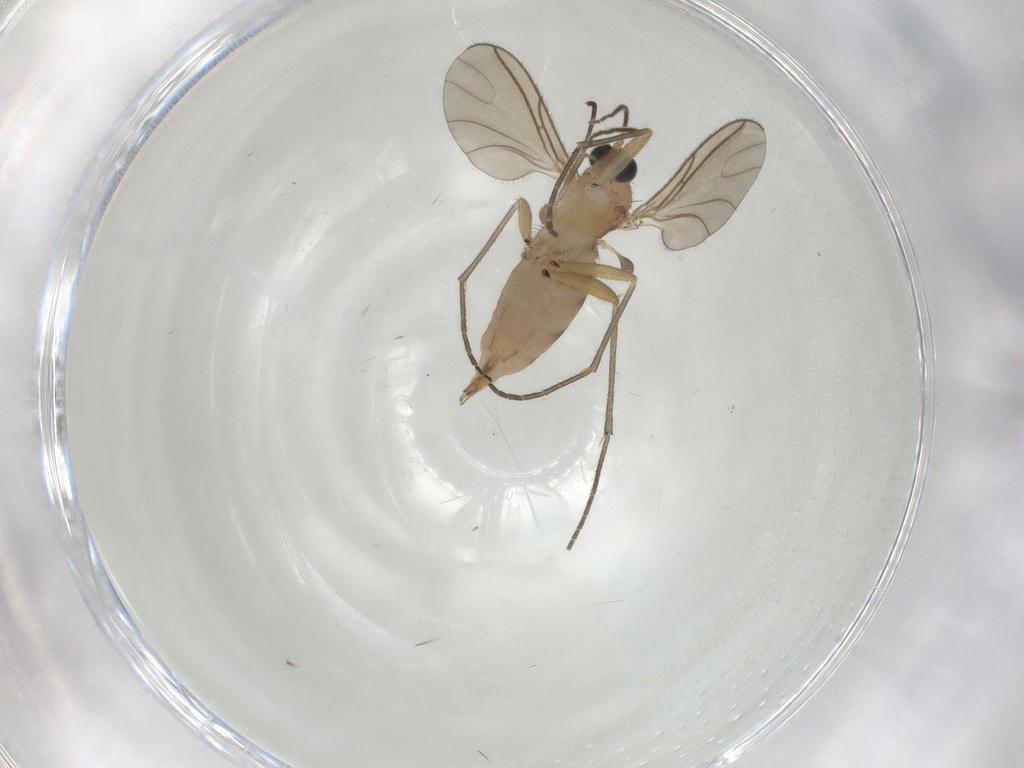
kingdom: Animalia
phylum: Arthropoda
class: Insecta
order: Diptera
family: Sciaridae
